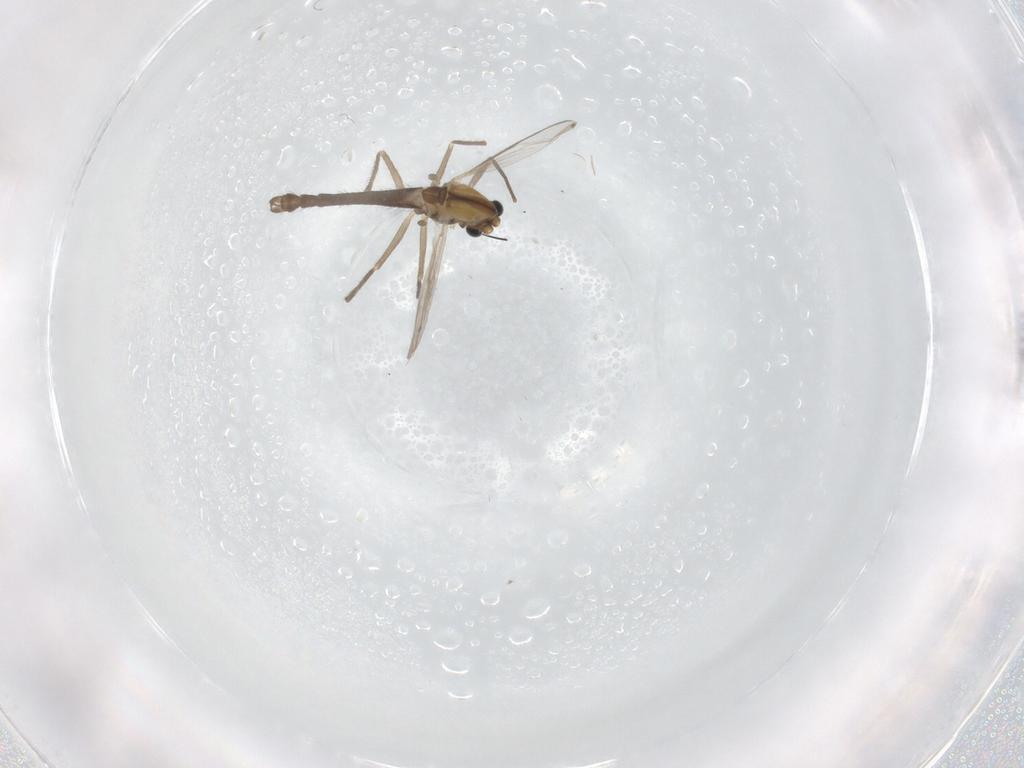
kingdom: Animalia
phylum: Arthropoda
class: Insecta
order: Diptera
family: Chironomidae
